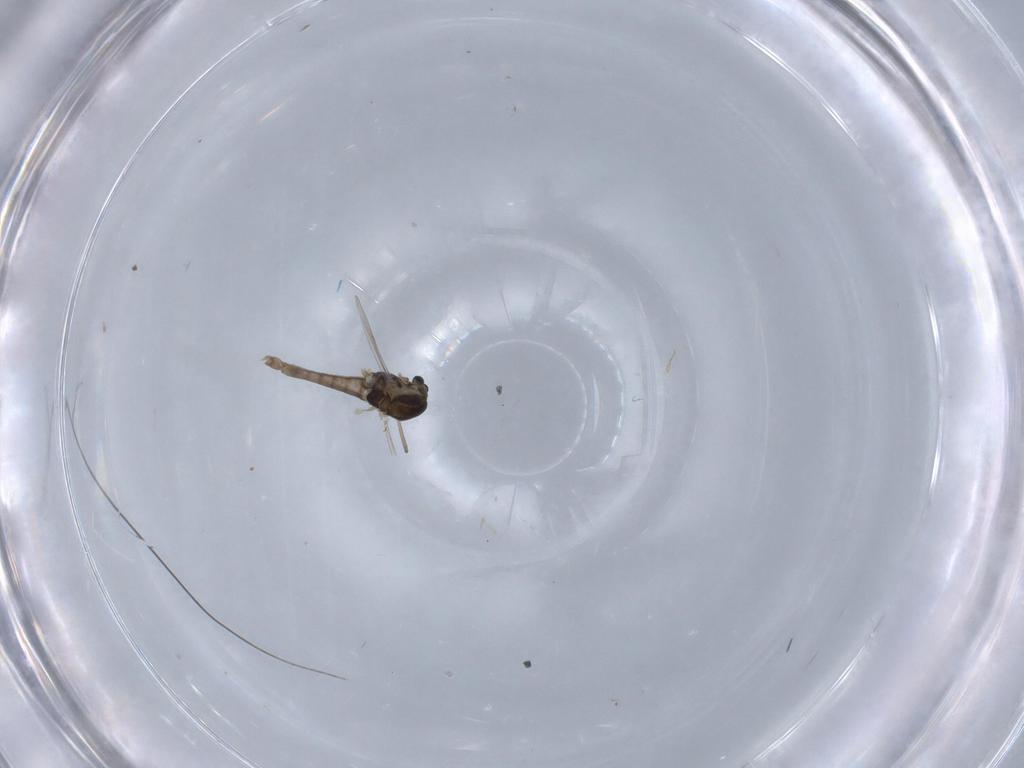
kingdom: Animalia
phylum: Arthropoda
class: Insecta
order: Diptera
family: Chironomidae
